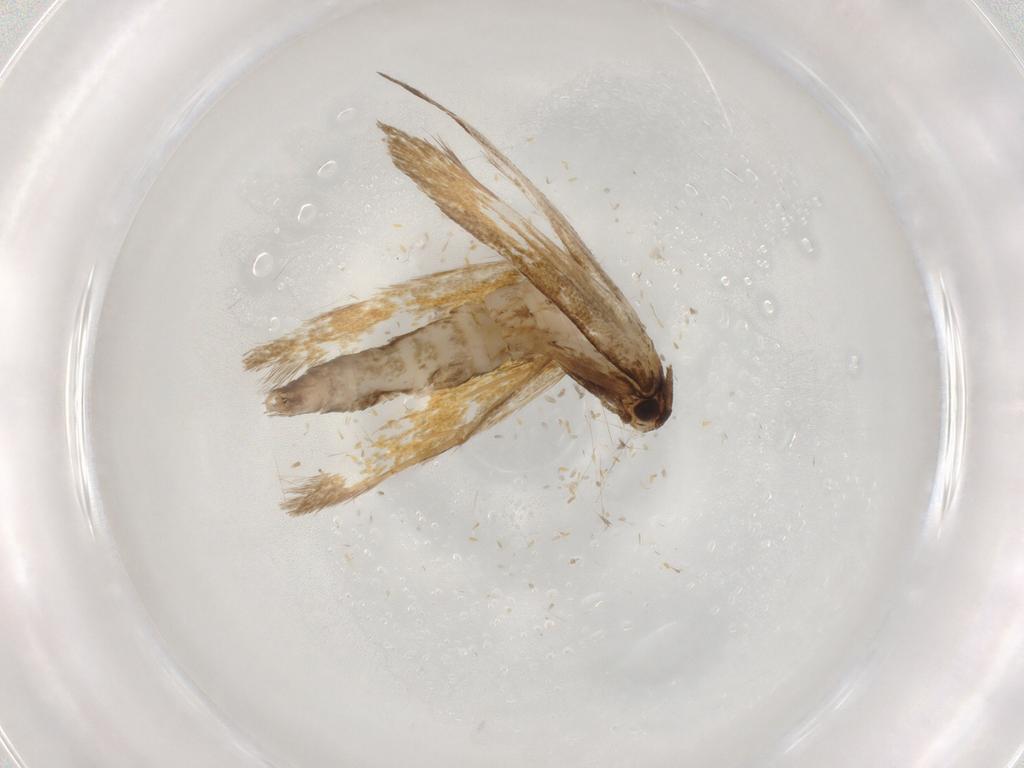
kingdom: Animalia
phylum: Arthropoda
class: Insecta
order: Lepidoptera
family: Tineidae
